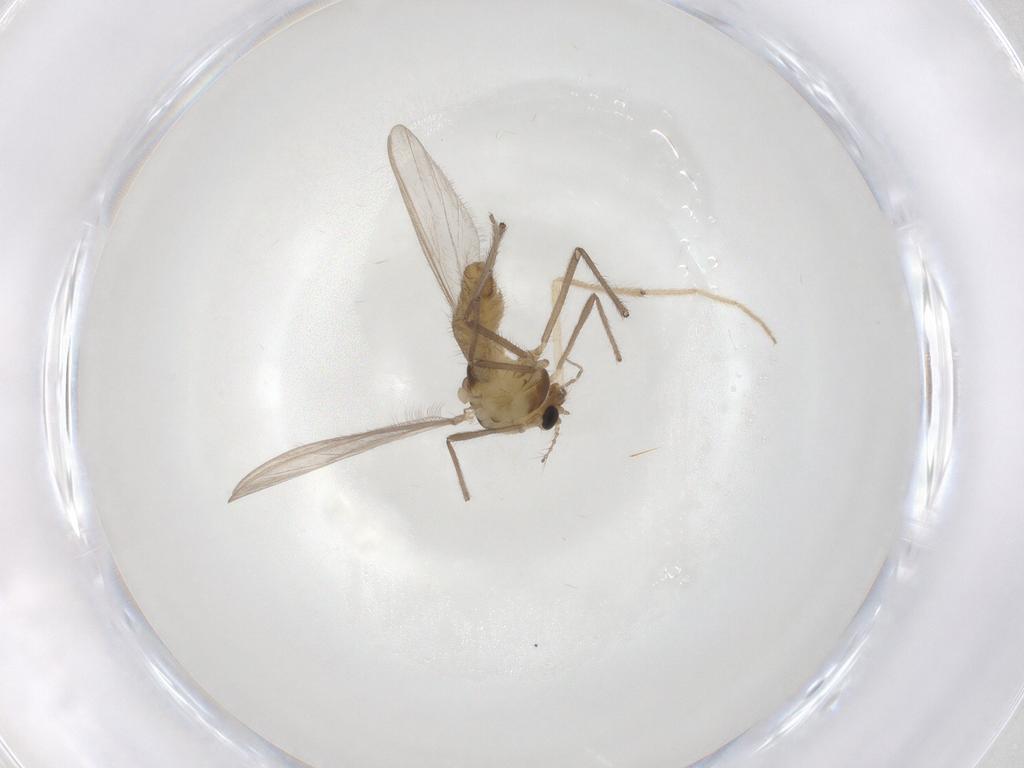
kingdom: Animalia
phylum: Arthropoda
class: Insecta
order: Diptera
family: Chironomidae
